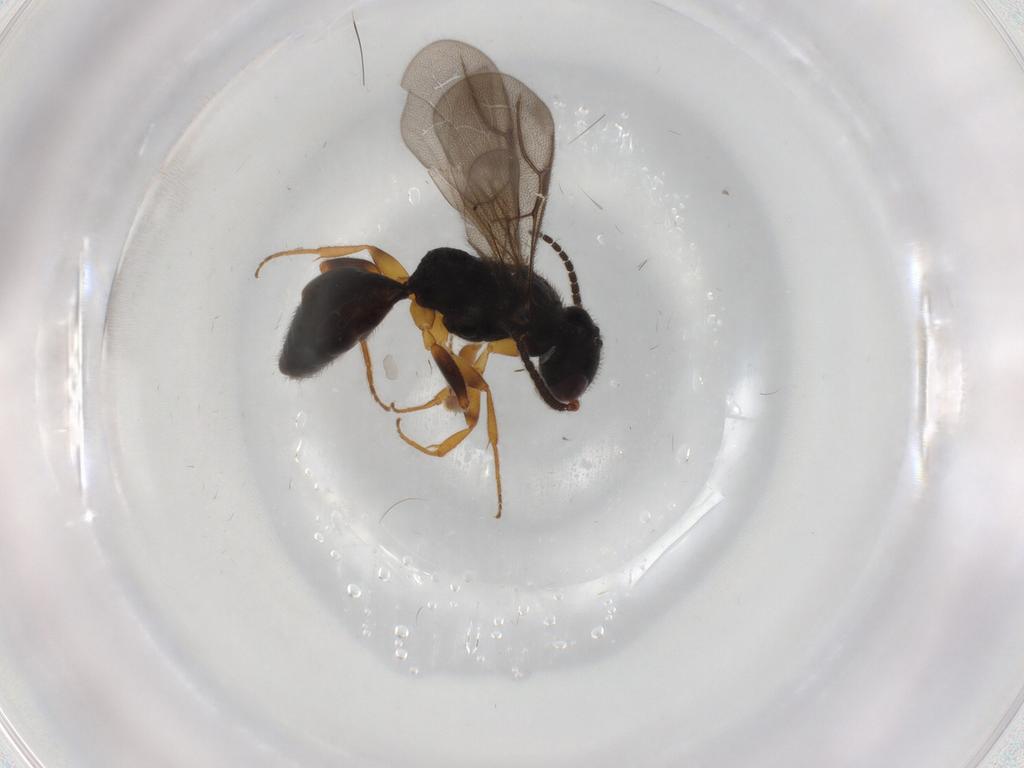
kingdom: Animalia
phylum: Arthropoda
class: Insecta
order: Hymenoptera
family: Bethylidae
